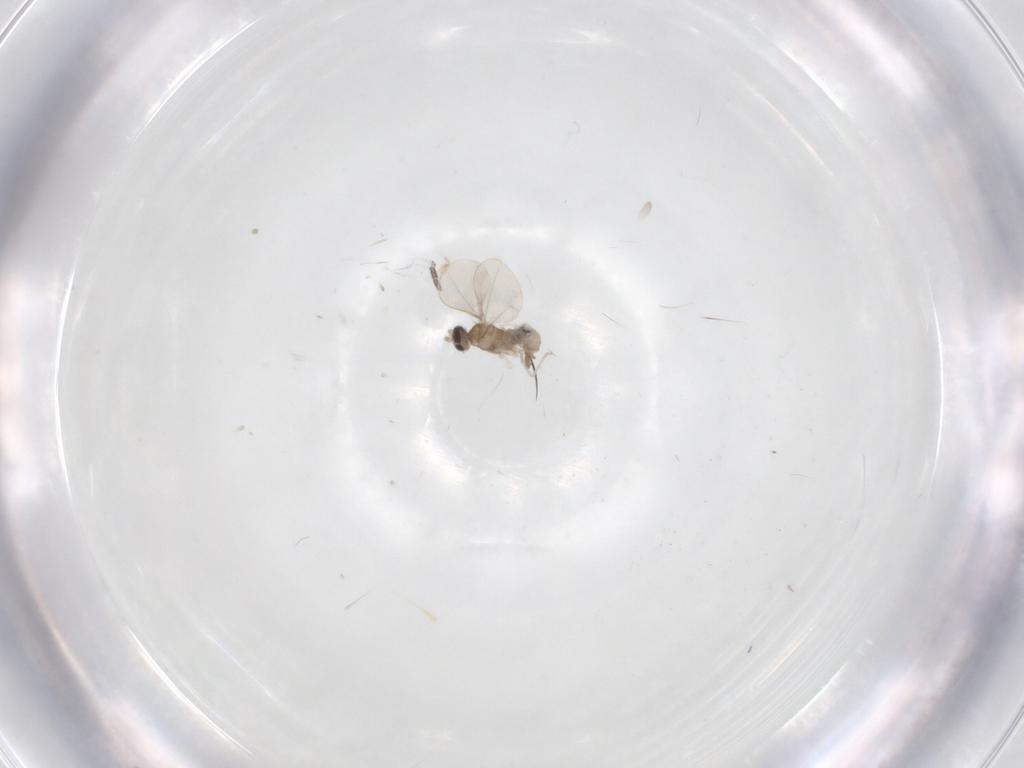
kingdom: Animalia
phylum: Arthropoda
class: Insecta
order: Diptera
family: Cecidomyiidae
